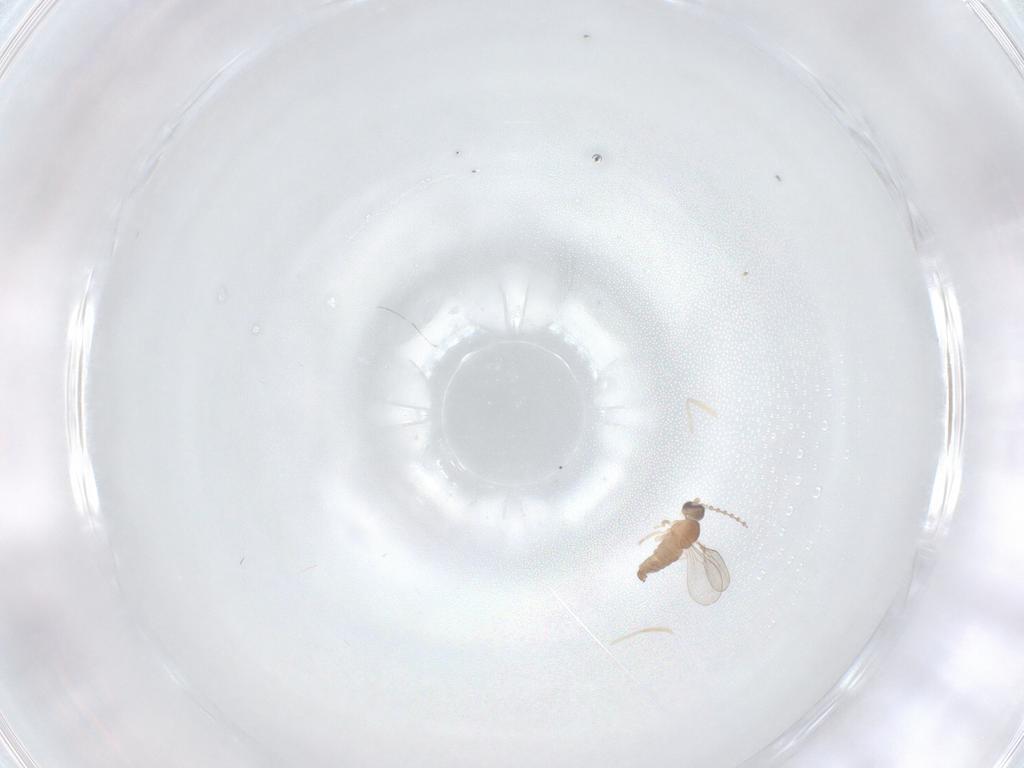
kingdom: Animalia
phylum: Arthropoda
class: Insecta
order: Diptera
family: Cecidomyiidae
